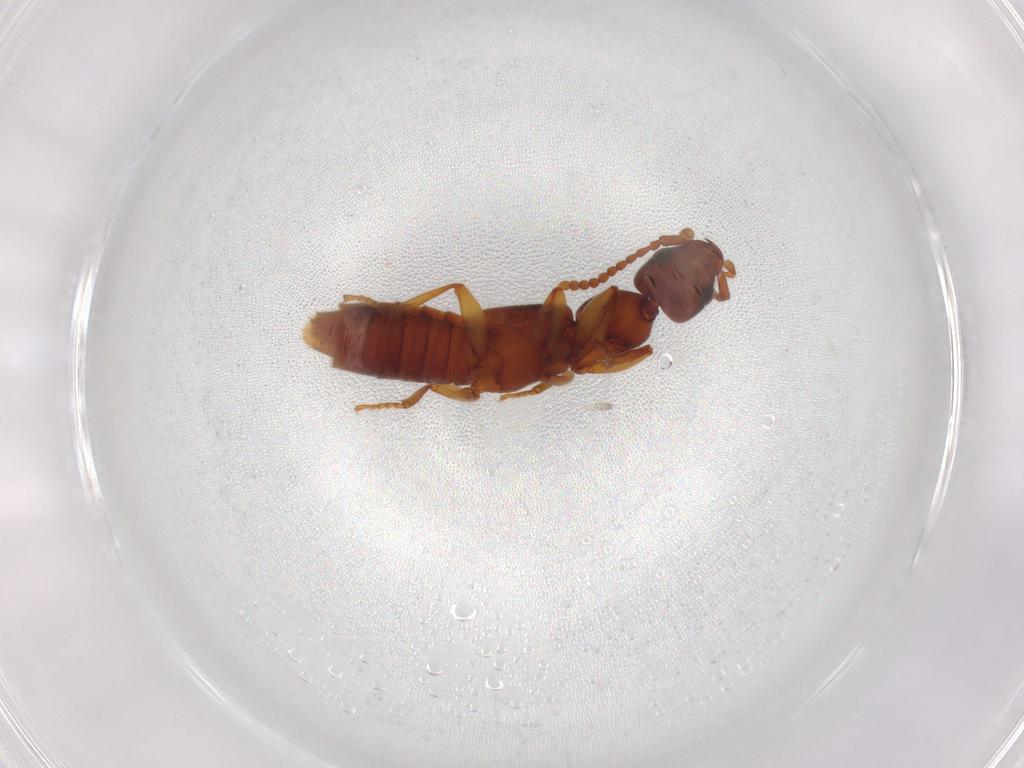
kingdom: Animalia
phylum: Arthropoda
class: Insecta
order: Coleoptera
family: Staphylinidae
